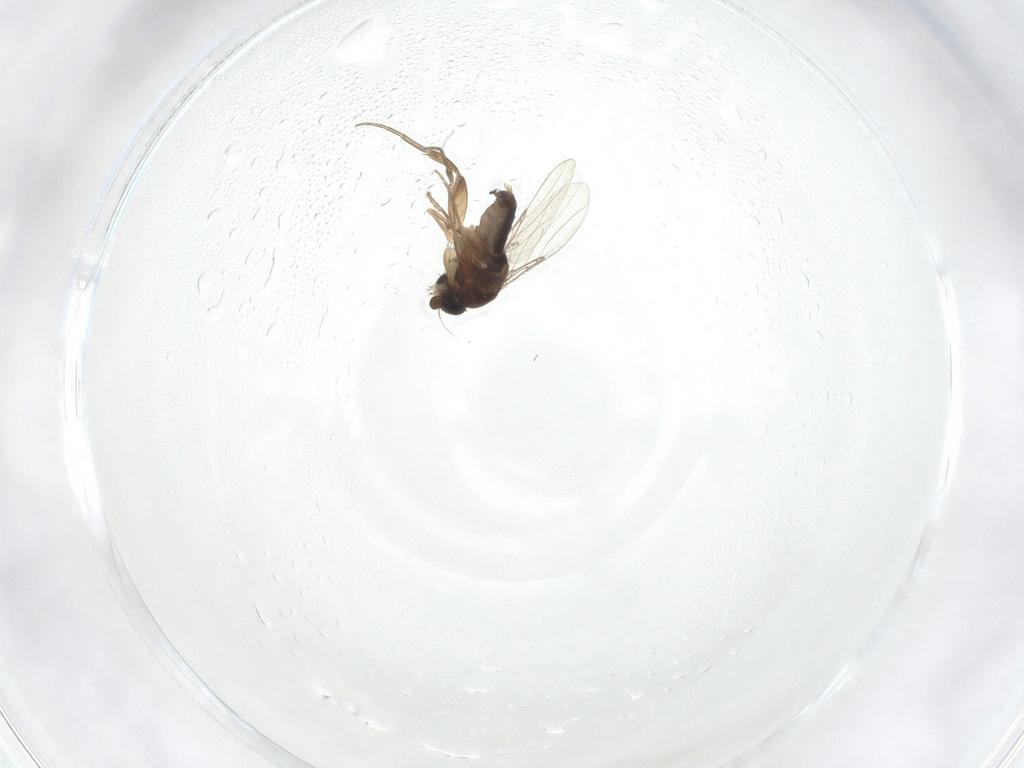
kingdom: Animalia
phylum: Arthropoda
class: Insecta
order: Diptera
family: Phoridae
